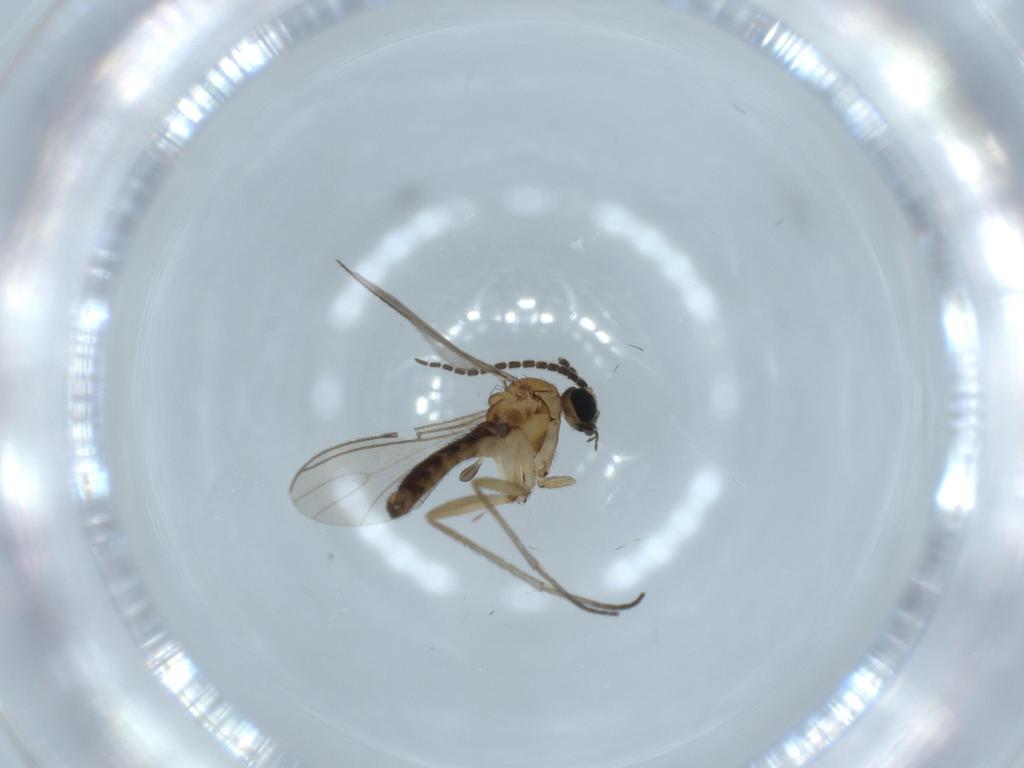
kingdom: Animalia
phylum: Arthropoda
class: Insecta
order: Diptera
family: Sciaridae
